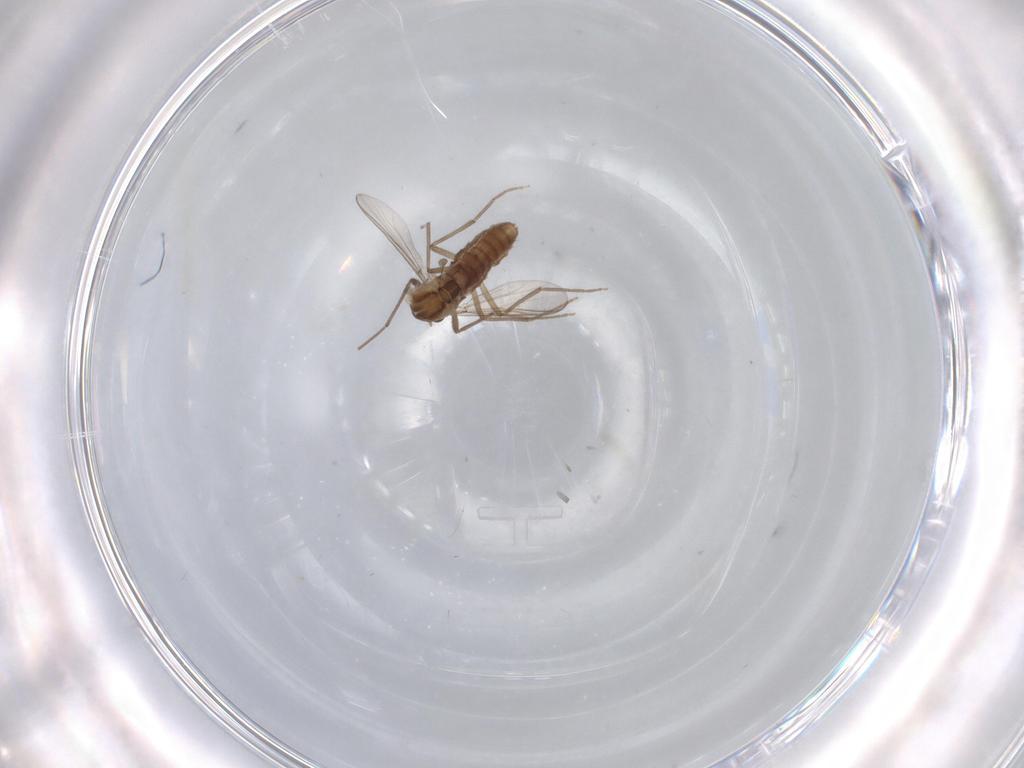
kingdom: Animalia
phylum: Arthropoda
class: Insecta
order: Diptera
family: Chironomidae
